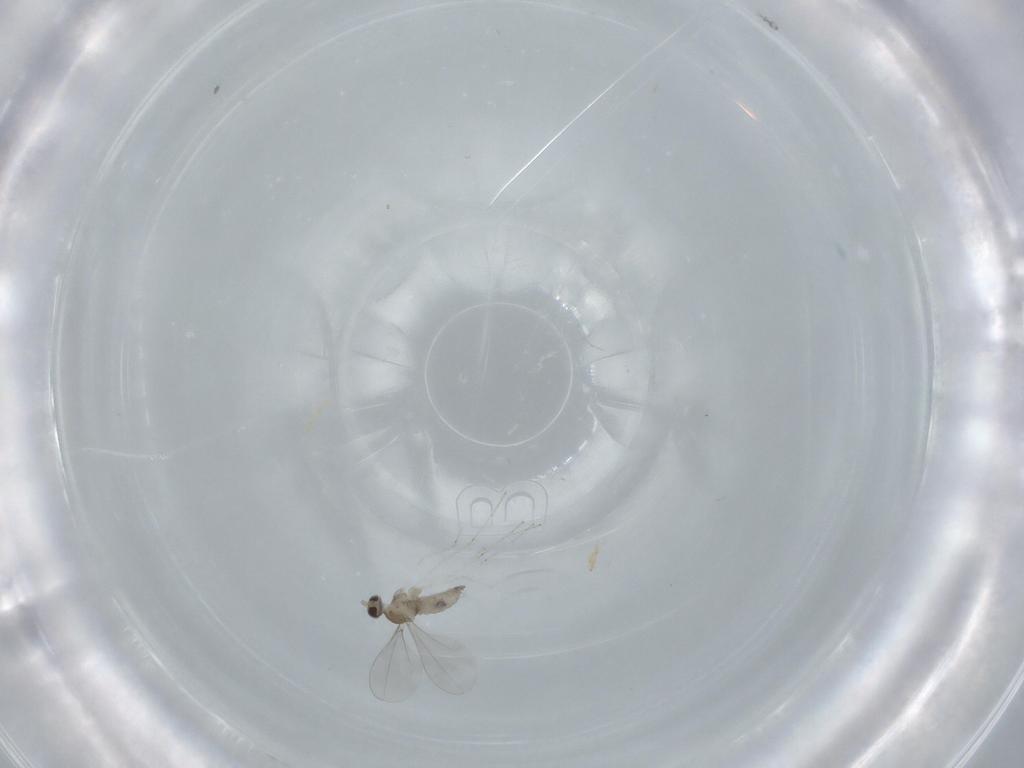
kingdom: Animalia
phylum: Arthropoda
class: Insecta
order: Diptera
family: Cecidomyiidae
